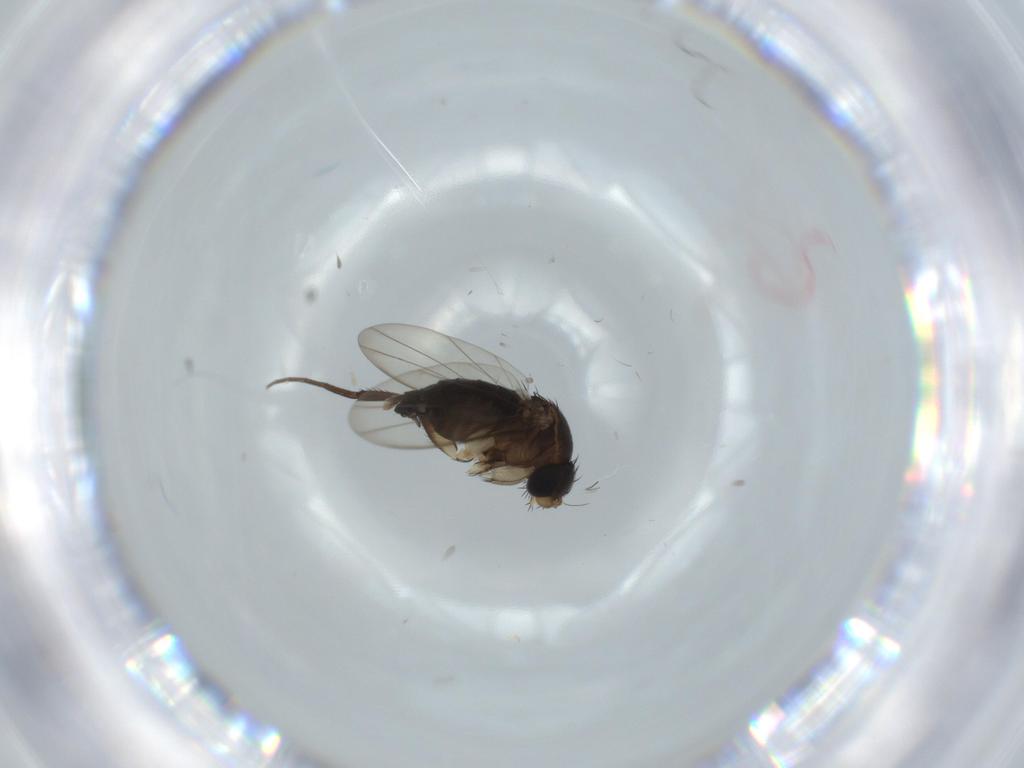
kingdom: Animalia
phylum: Arthropoda
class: Insecta
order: Diptera
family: Phoridae
